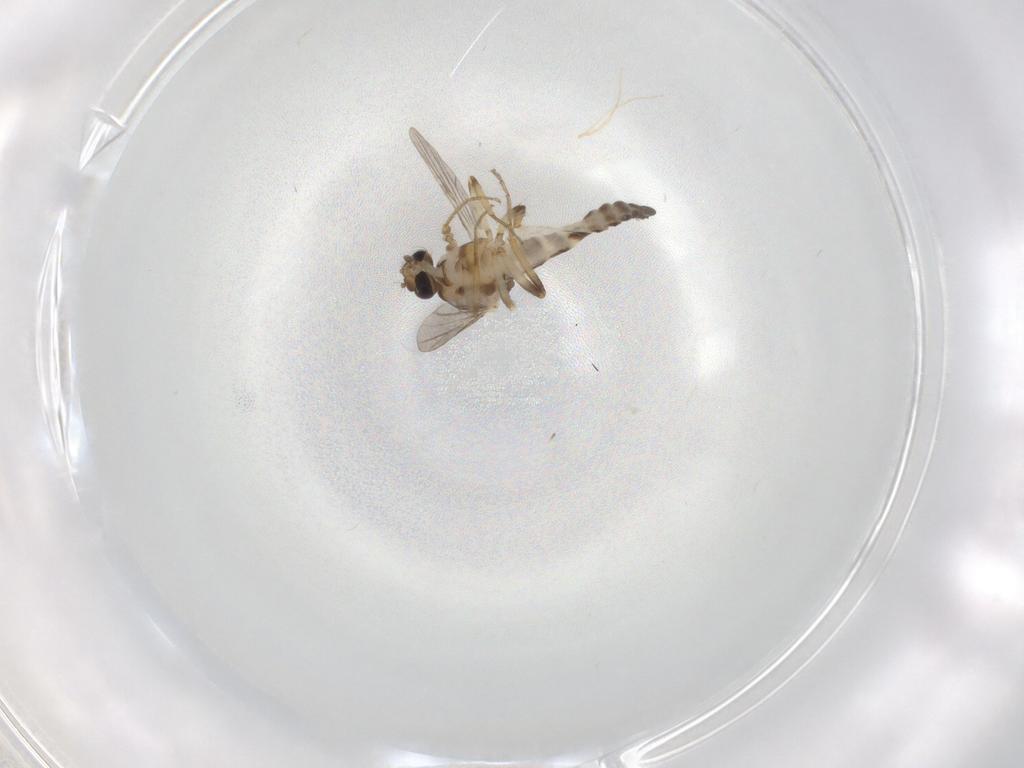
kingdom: Animalia
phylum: Arthropoda
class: Insecta
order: Diptera
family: Ceratopogonidae
